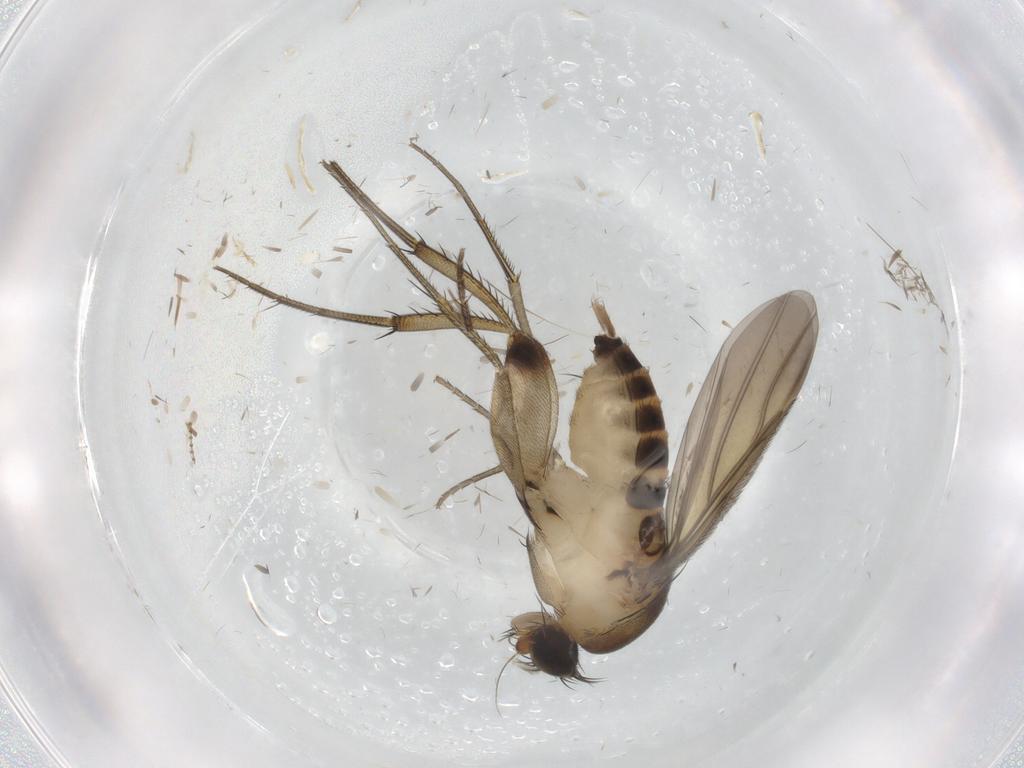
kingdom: Animalia
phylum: Arthropoda
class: Insecta
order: Diptera
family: Phoridae
